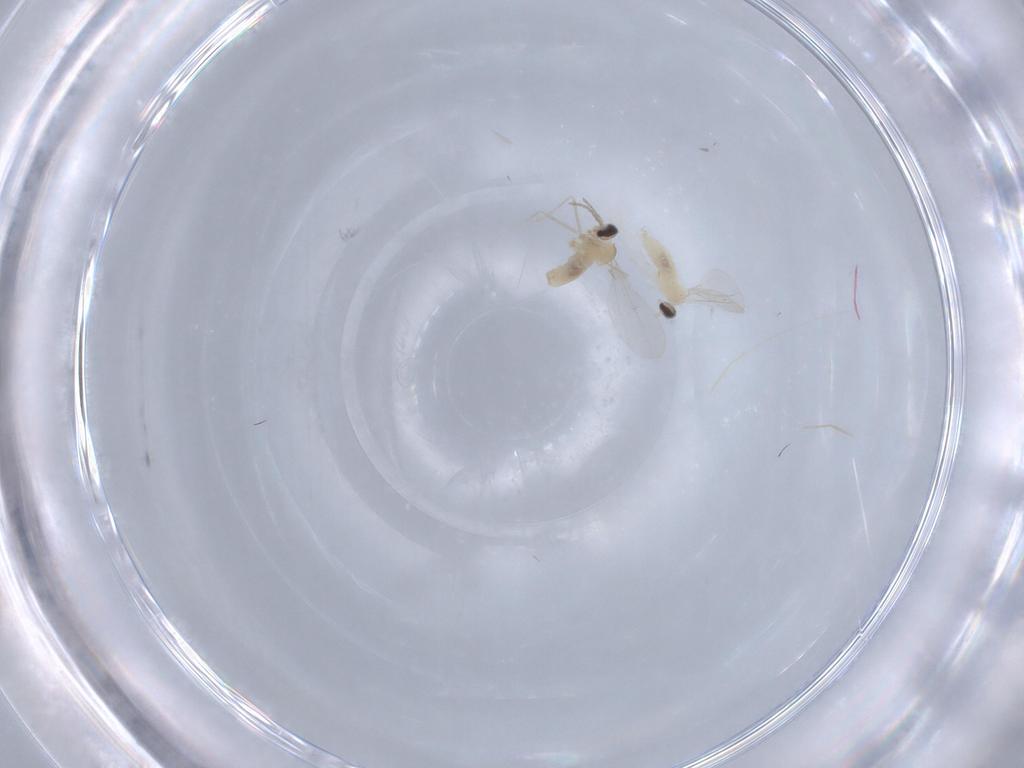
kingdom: Animalia
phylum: Arthropoda
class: Insecta
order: Diptera
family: Cecidomyiidae
